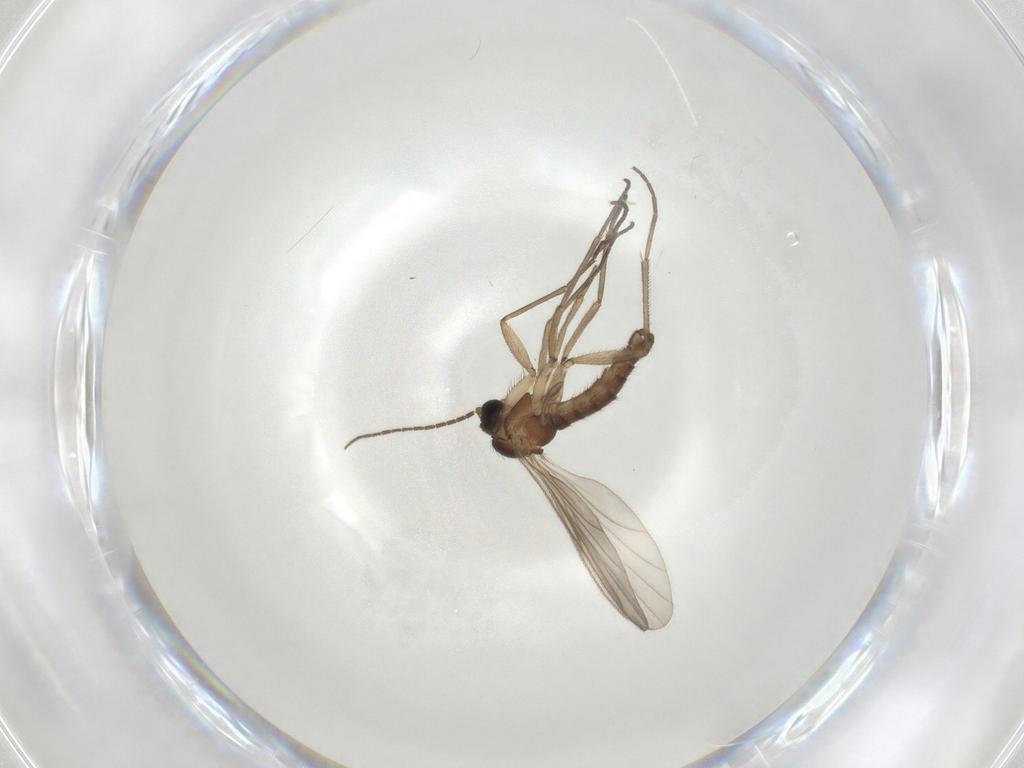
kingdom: Animalia
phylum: Arthropoda
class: Insecta
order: Diptera
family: Sciaridae
